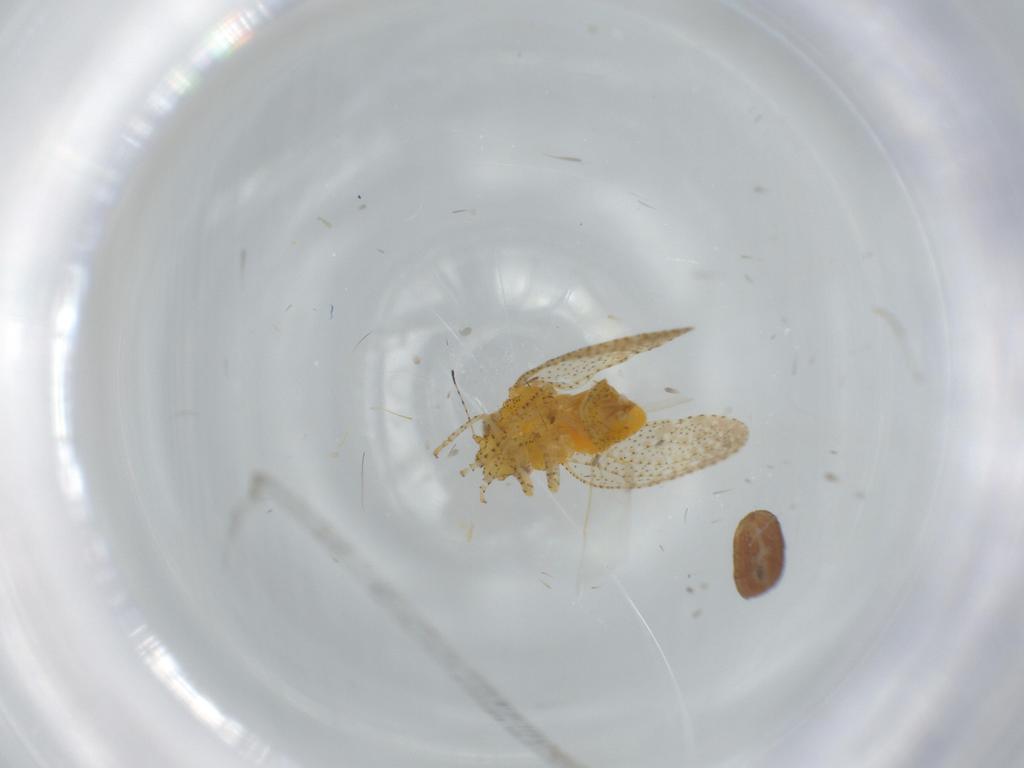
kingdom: Animalia
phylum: Arthropoda
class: Insecta
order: Hemiptera
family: Psyllidae
